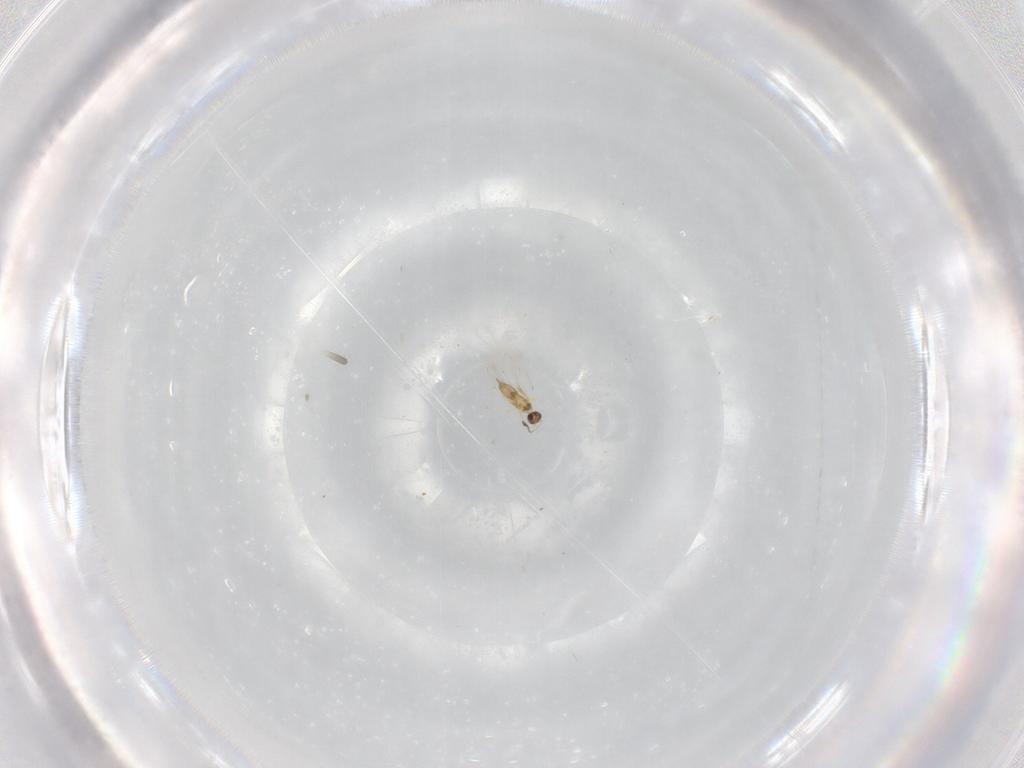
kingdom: Animalia
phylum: Arthropoda
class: Insecta
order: Hymenoptera
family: Mymaridae
